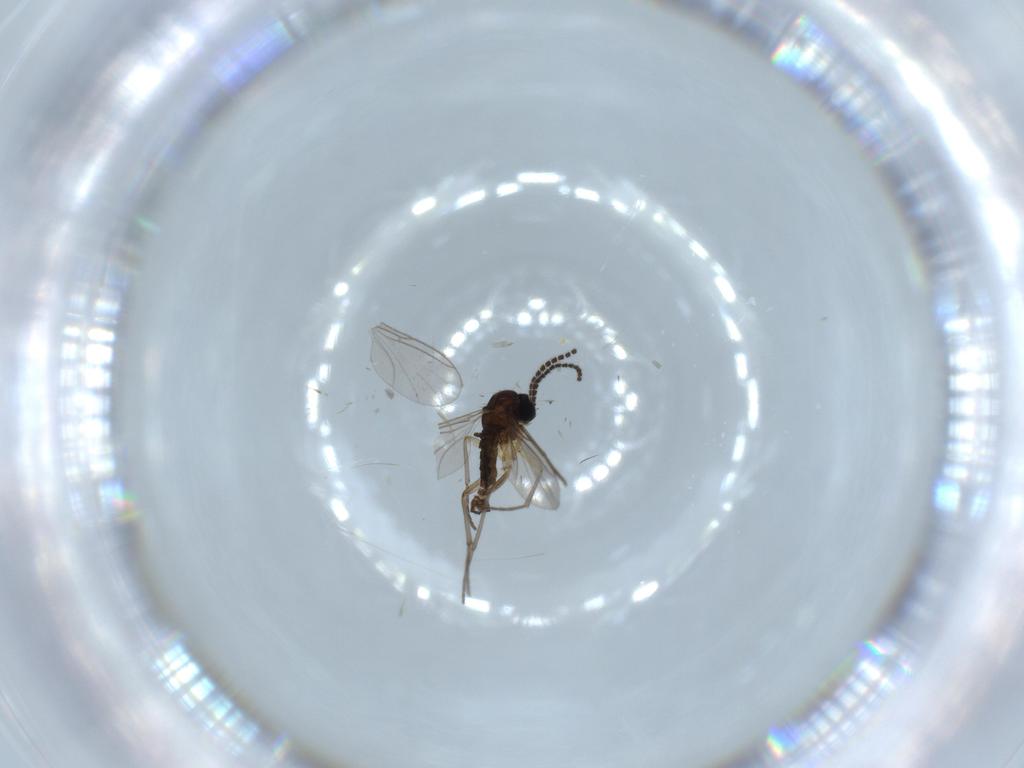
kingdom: Animalia
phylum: Arthropoda
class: Insecta
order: Diptera
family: Sciaridae
